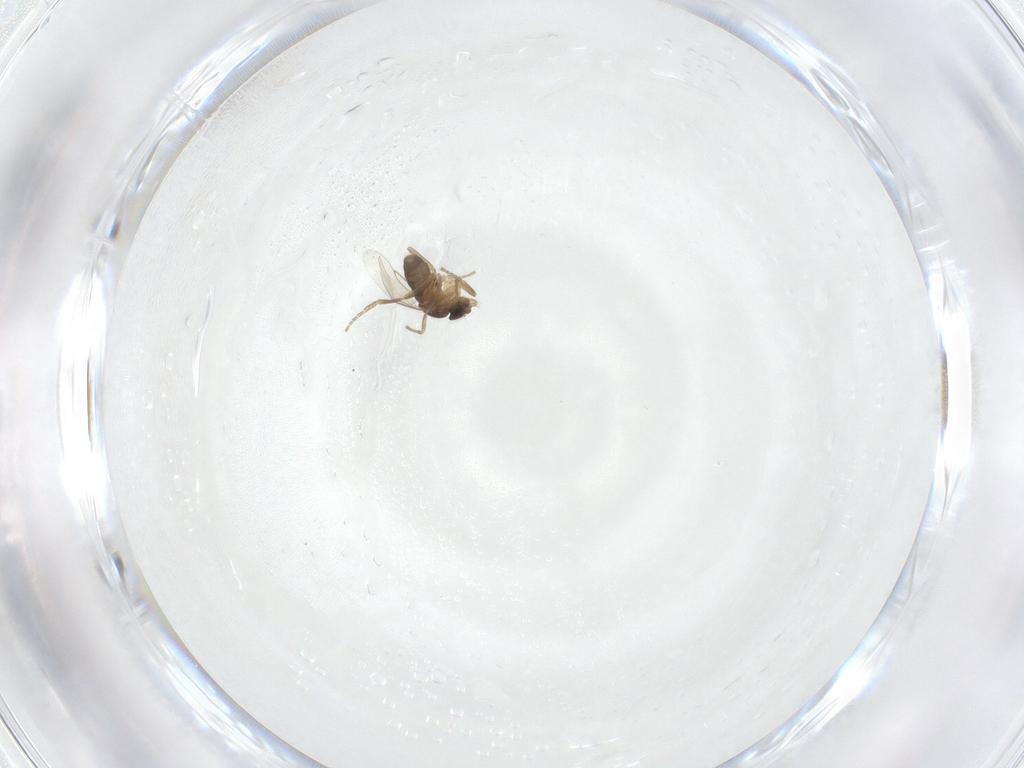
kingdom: Animalia
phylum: Arthropoda
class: Insecta
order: Diptera
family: Phoridae
